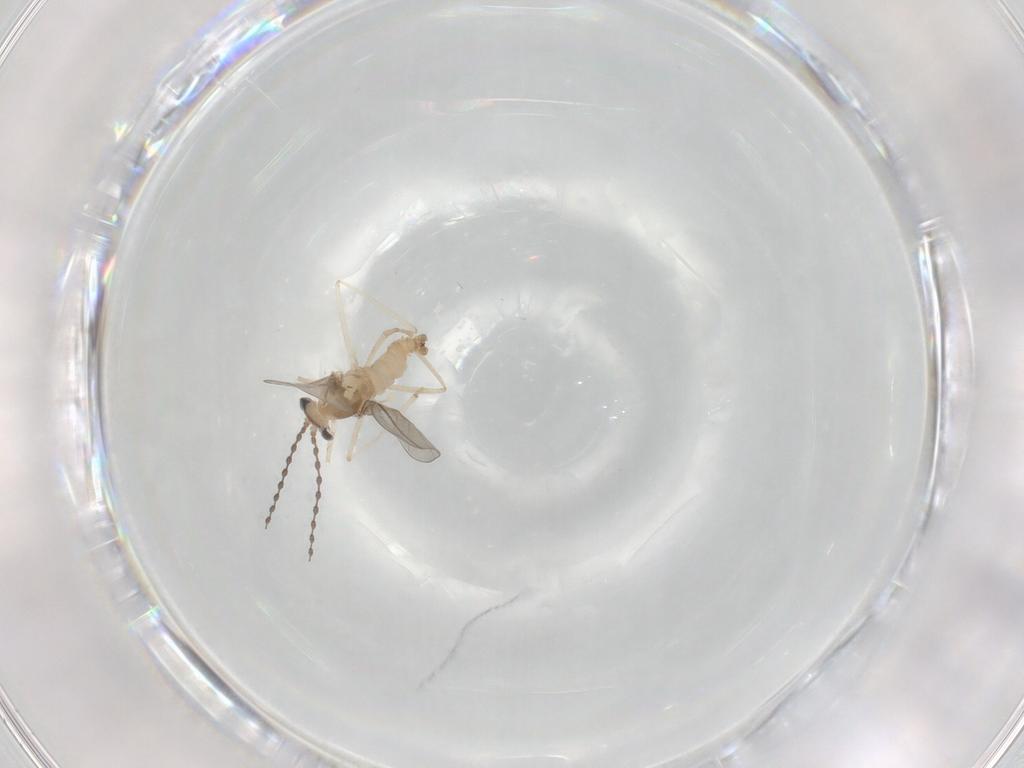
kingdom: Animalia
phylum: Arthropoda
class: Insecta
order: Diptera
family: Cecidomyiidae
